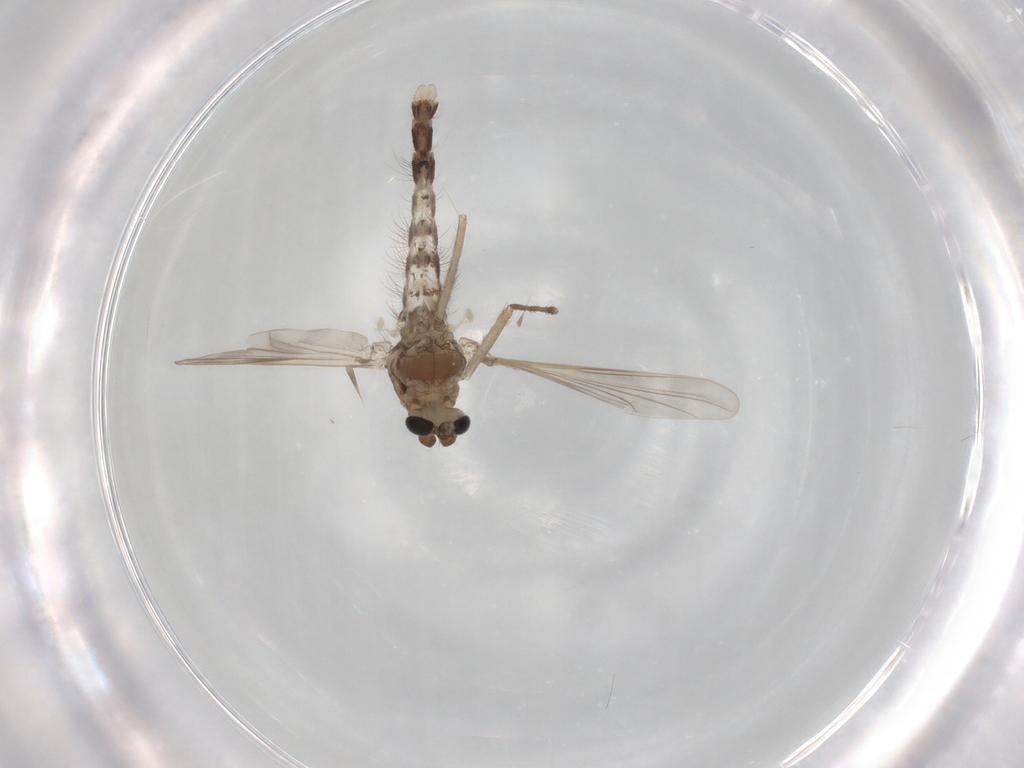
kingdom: Animalia
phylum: Arthropoda
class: Insecta
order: Diptera
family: Chironomidae
